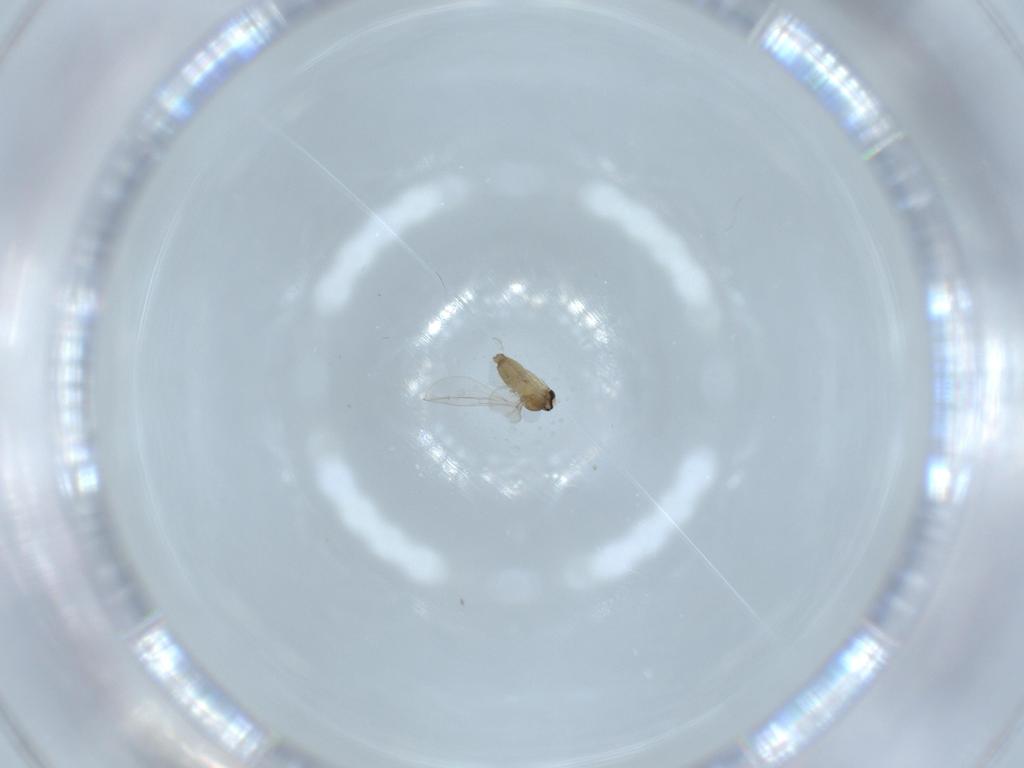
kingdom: Animalia
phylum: Arthropoda
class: Insecta
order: Diptera
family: Cecidomyiidae
